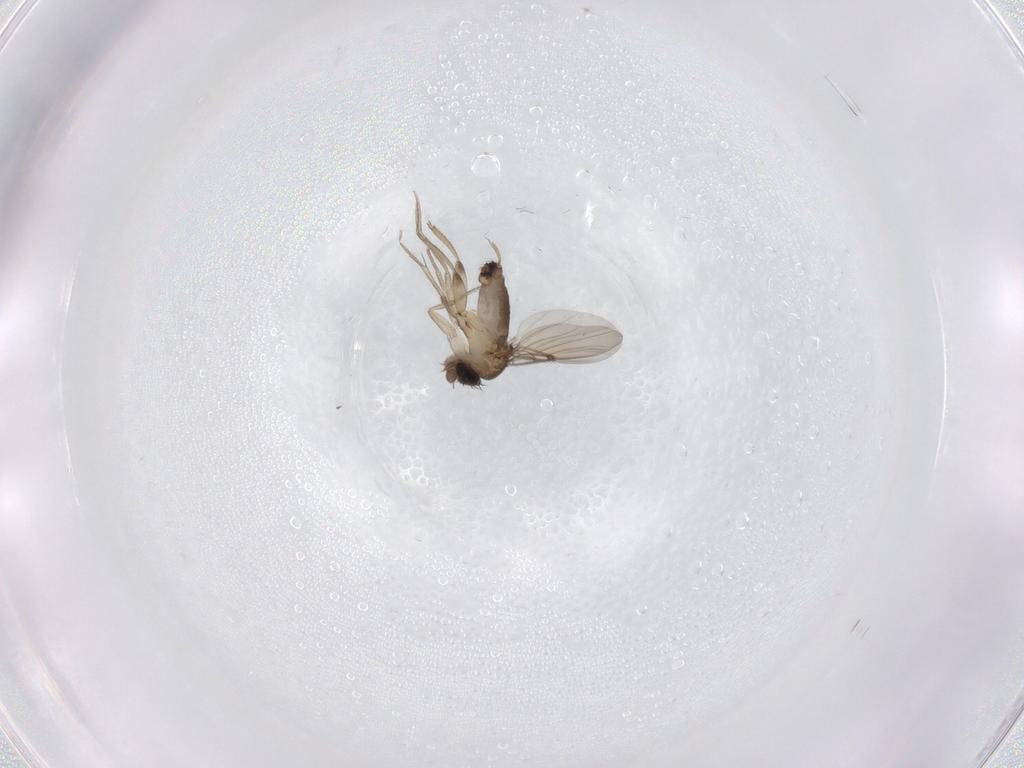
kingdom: Animalia
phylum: Arthropoda
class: Insecta
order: Diptera
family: Phoridae
